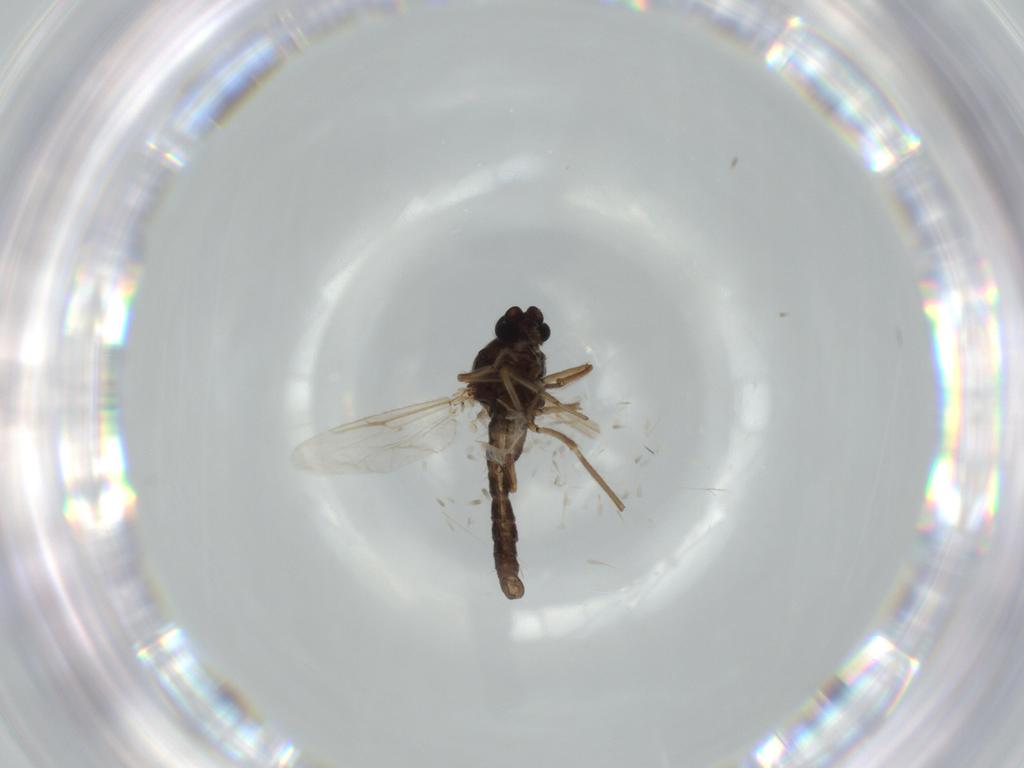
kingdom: Animalia
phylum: Arthropoda
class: Insecta
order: Diptera
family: Ceratopogonidae
